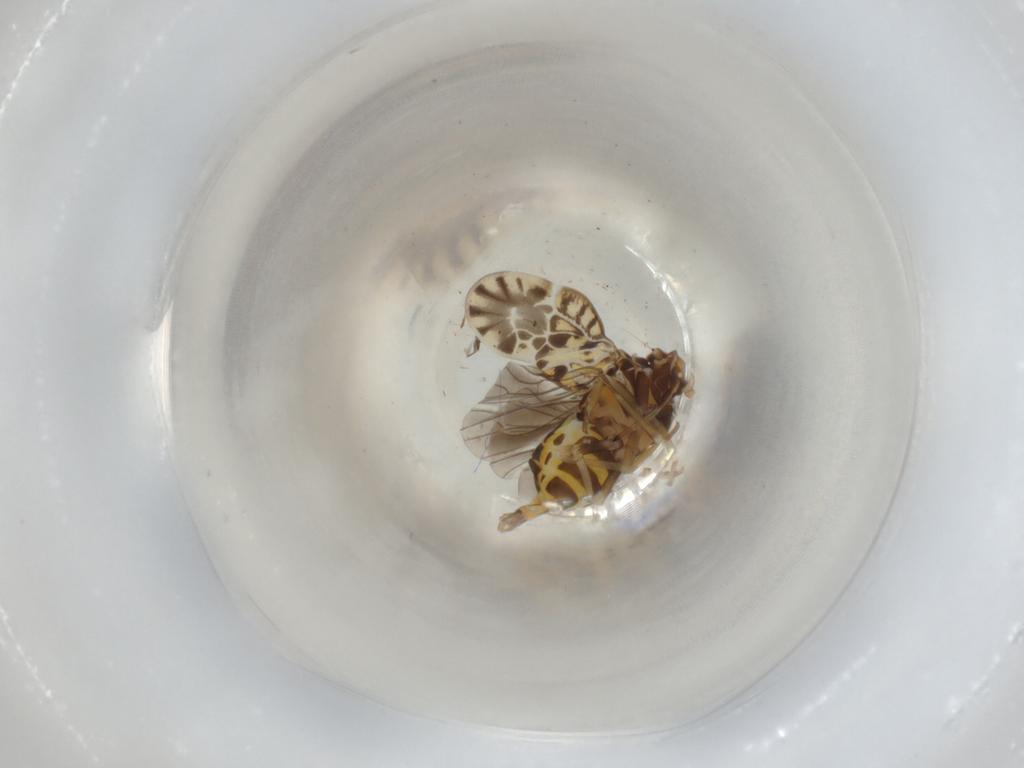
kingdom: Animalia
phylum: Arthropoda
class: Insecta
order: Hemiptera
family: Meenoplidae
